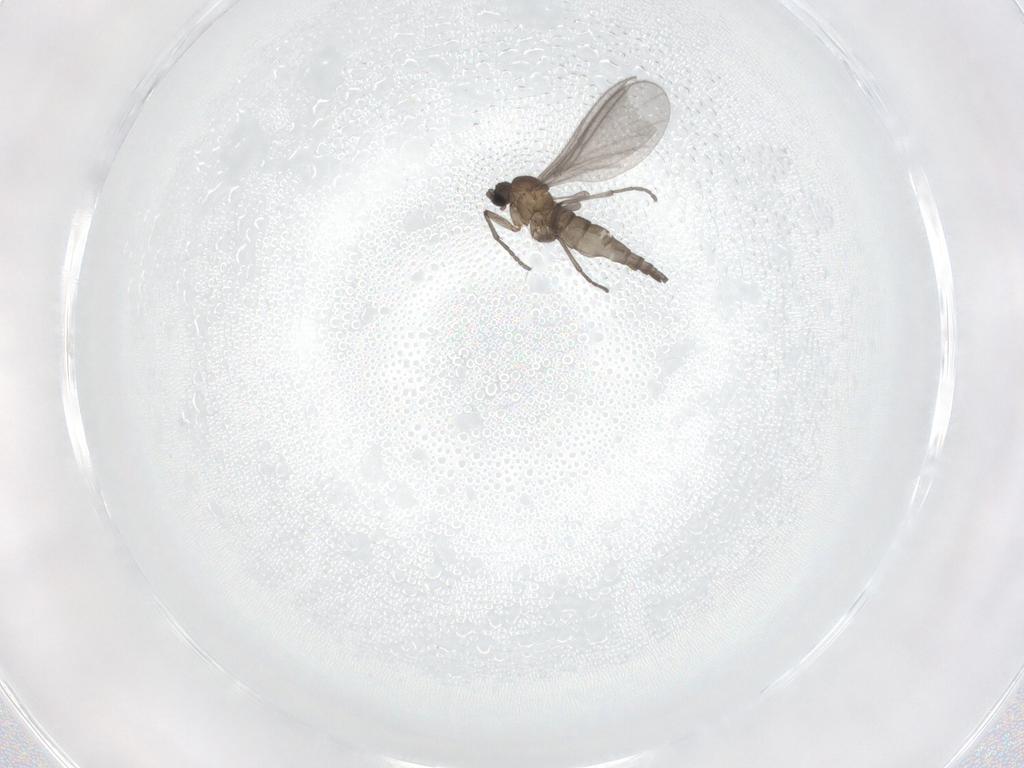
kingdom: Animalia
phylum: Arthropoda
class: Insecta
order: Diptera
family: Sciaridae
